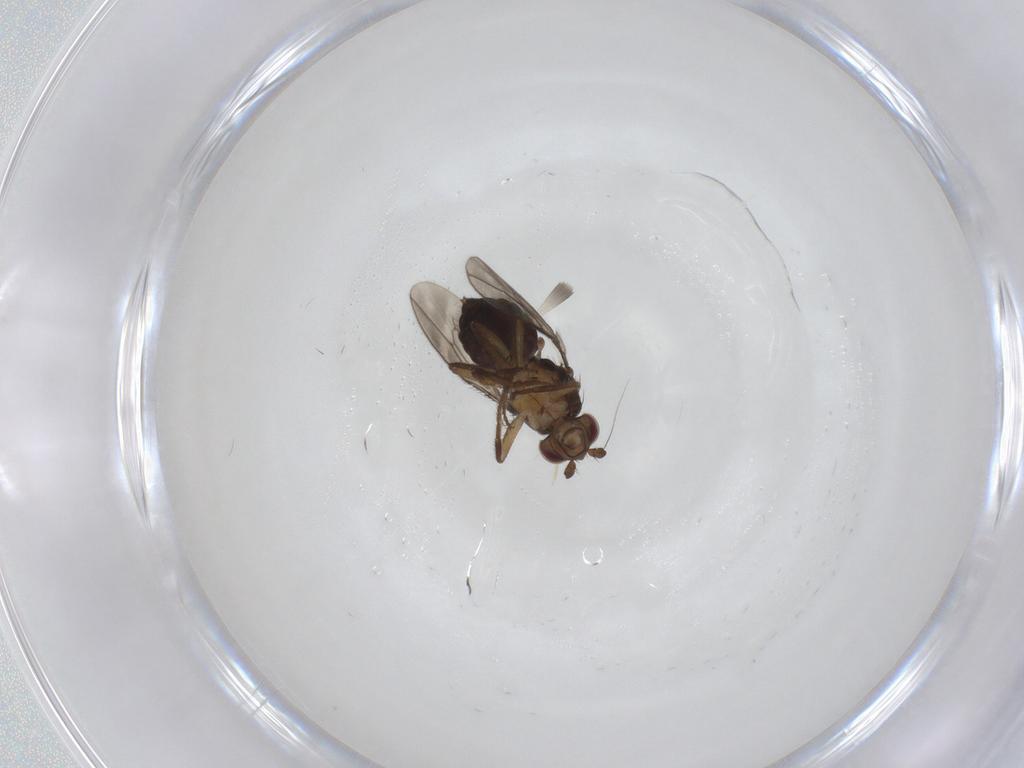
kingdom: Animalia
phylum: Arthropoda
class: Insecta
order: Diptera
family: Sphaeroceridae
